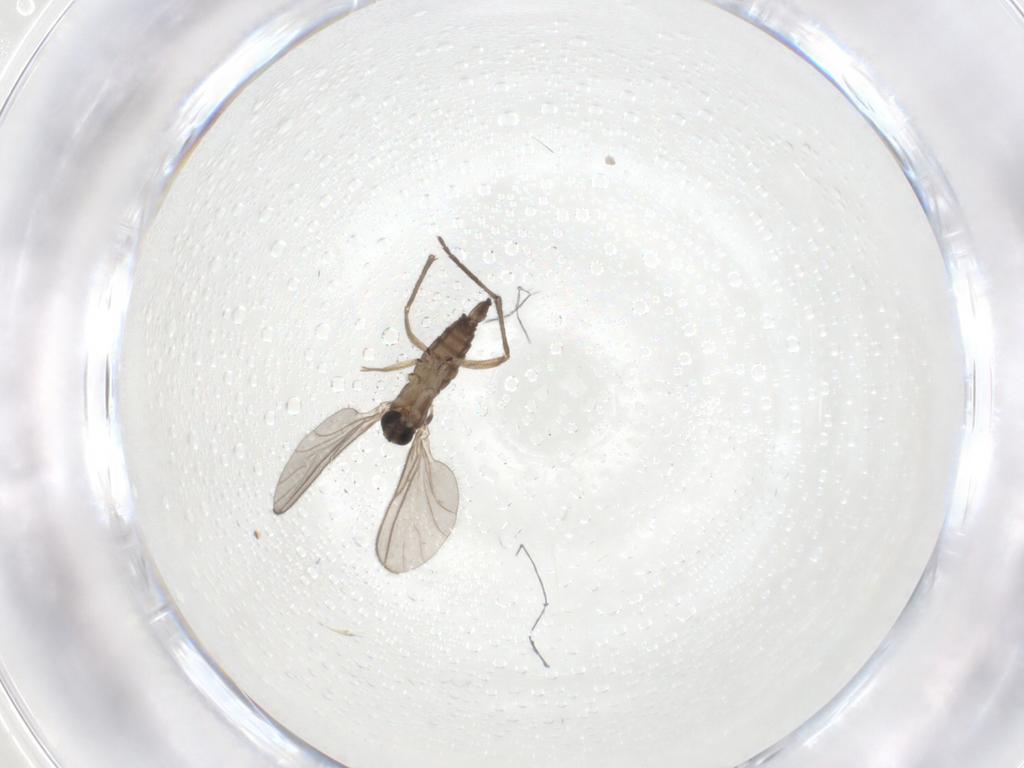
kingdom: Animalia
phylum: Arthropoda
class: Insecta
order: Diptera
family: Sciaridae
